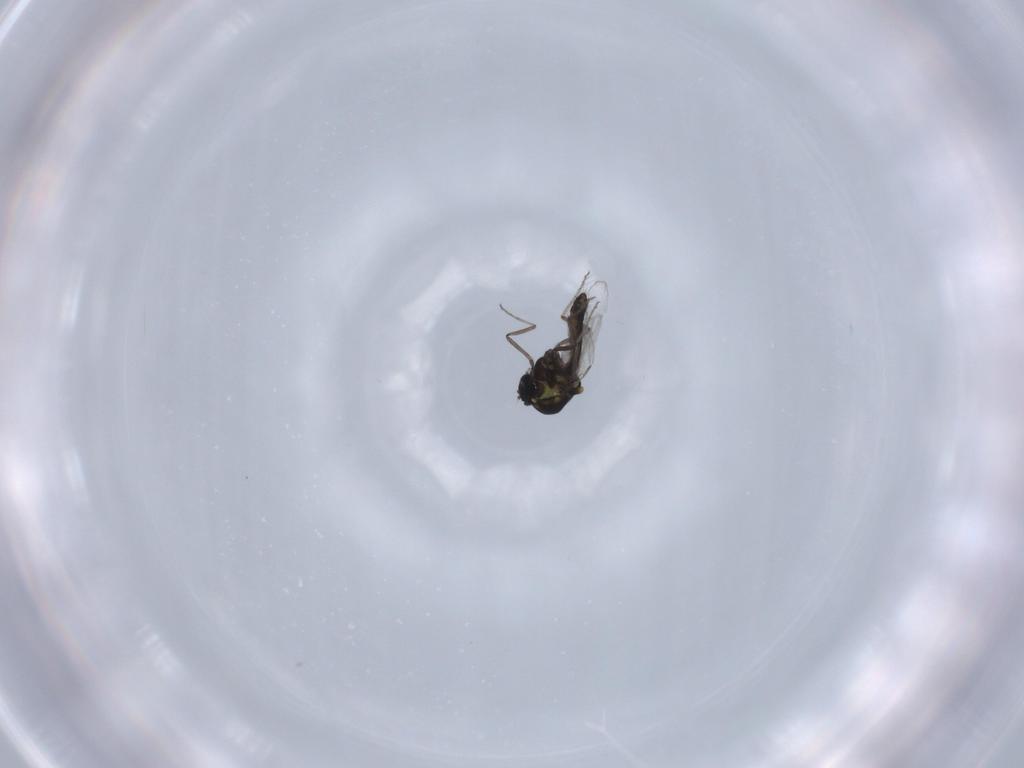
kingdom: Animalia
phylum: Arthropoda
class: Insecta
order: Diptera
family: Ceratopogonidae
